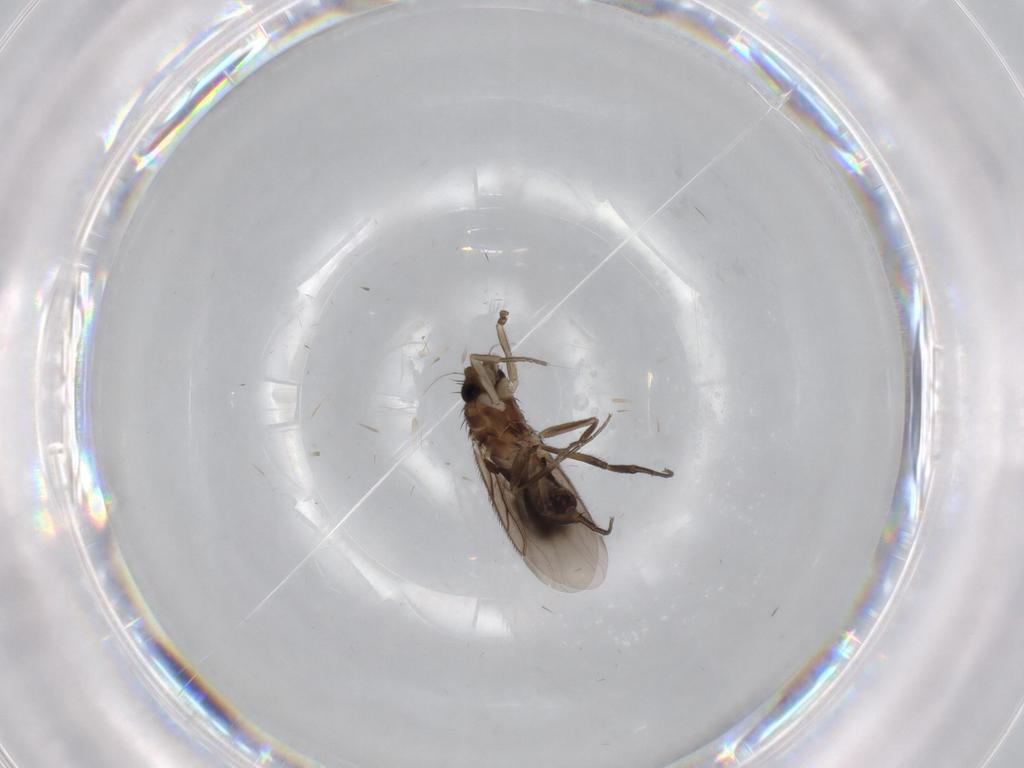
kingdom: Animalia
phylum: Arthropoda
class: Insecta
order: Diptera
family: Phoridae
